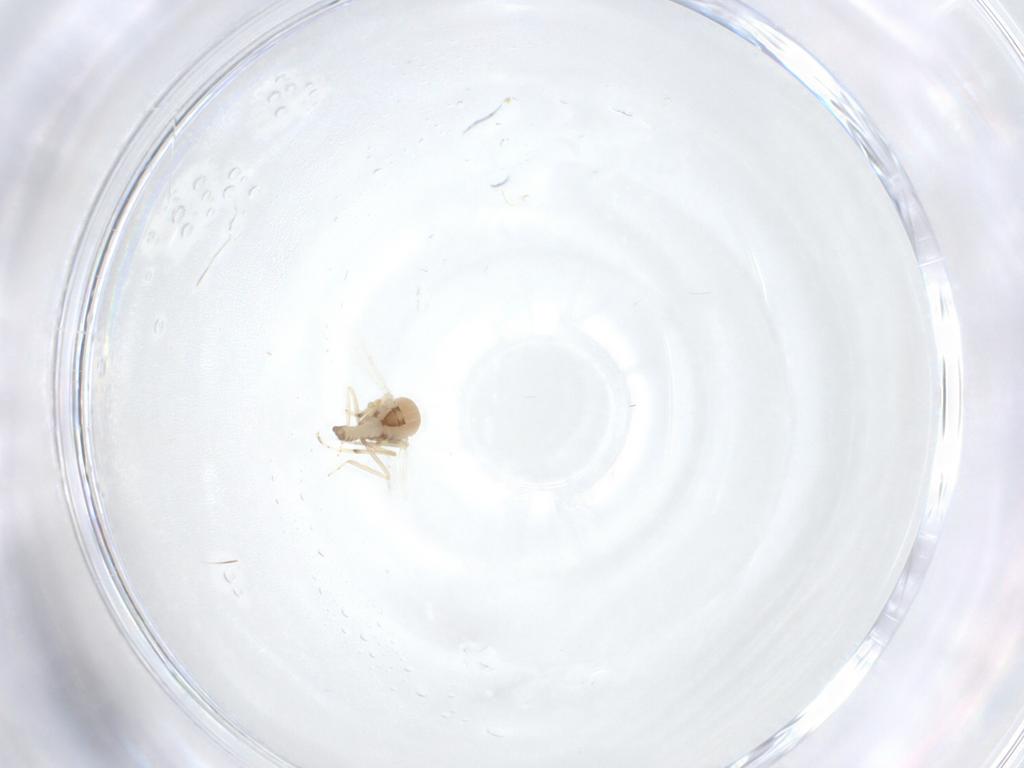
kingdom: Animalia
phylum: Arthropoda
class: Insecta
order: Diptera
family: Ceratopogonidae
